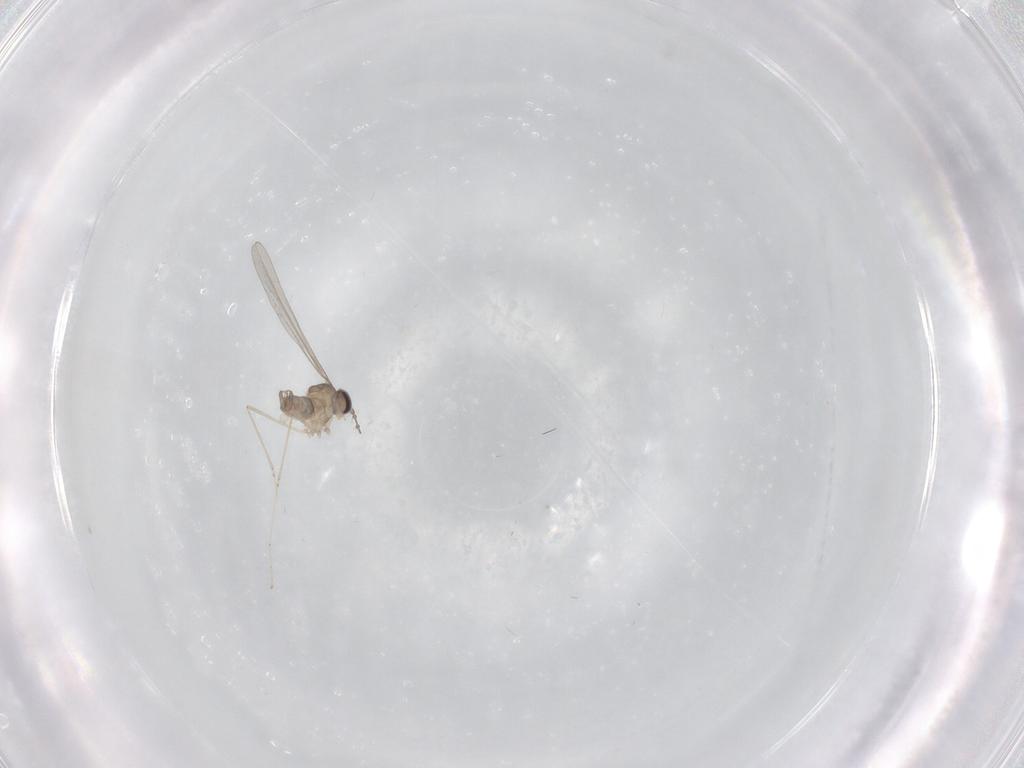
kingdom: Animalia
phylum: Arthropoda
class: Insecta
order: Diptera
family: Cecidomyiidae
